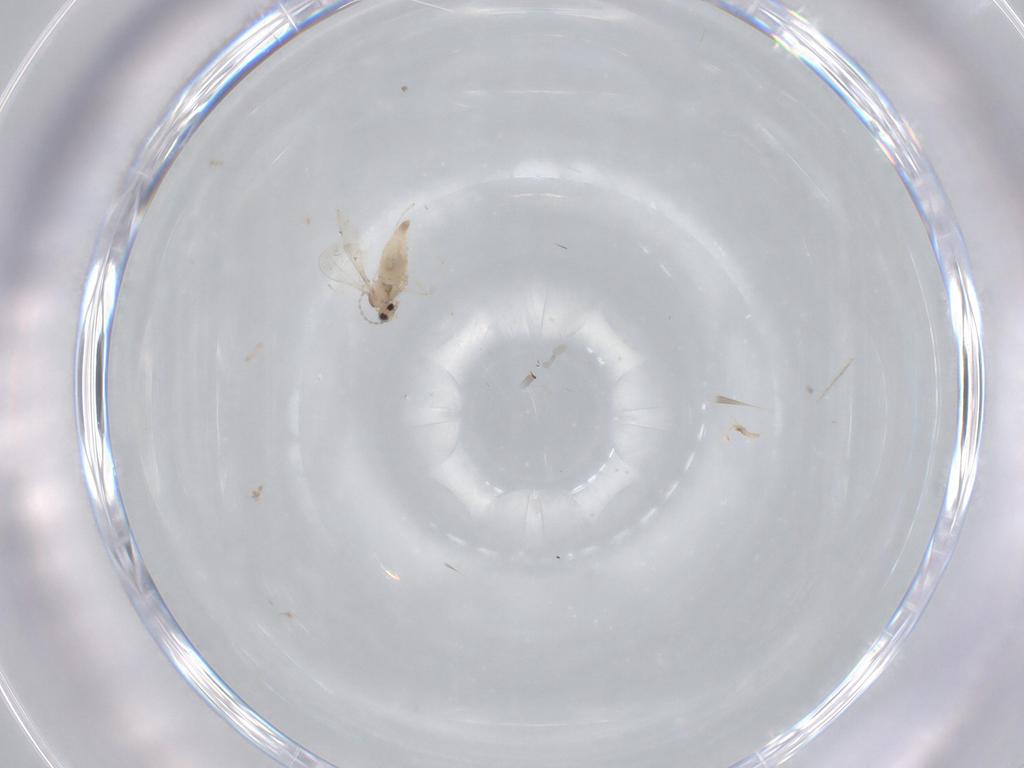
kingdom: Animalia
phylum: Arthropoda
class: Insecta
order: Diptera
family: Cecidomyiidae
